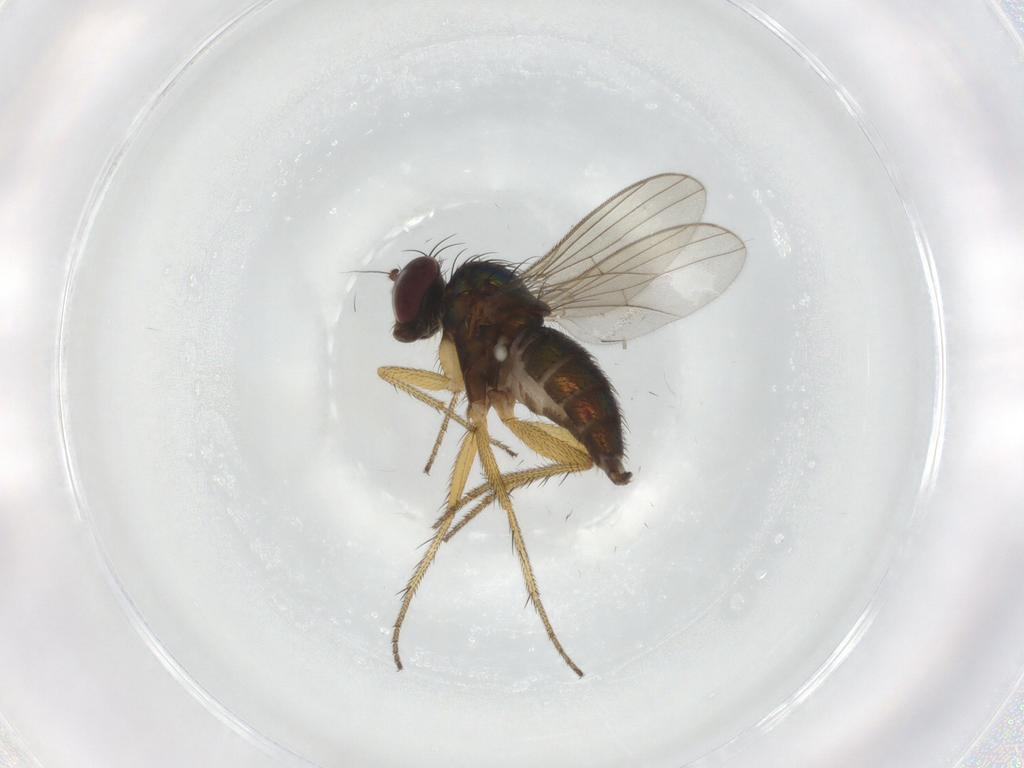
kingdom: Animalia
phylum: Arthropoda
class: Insecta
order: Diptera
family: Dolichopodidae
